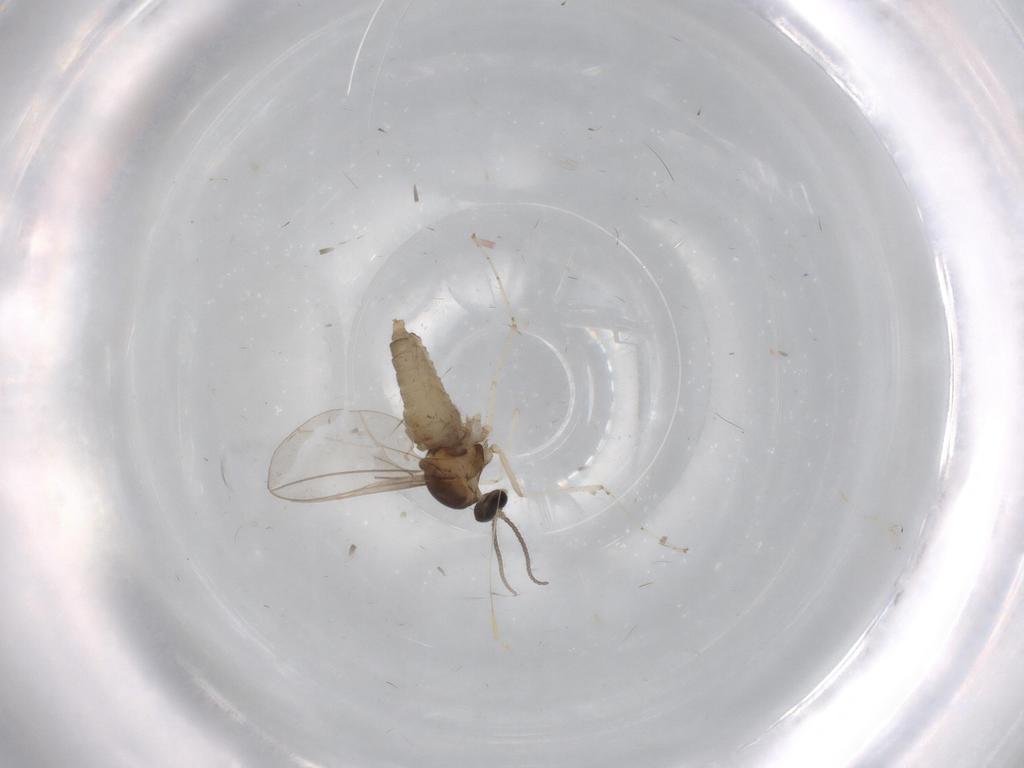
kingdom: Animalia
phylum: Arthropoda
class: Insecta
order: Diptera
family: Cecidomyiidae
